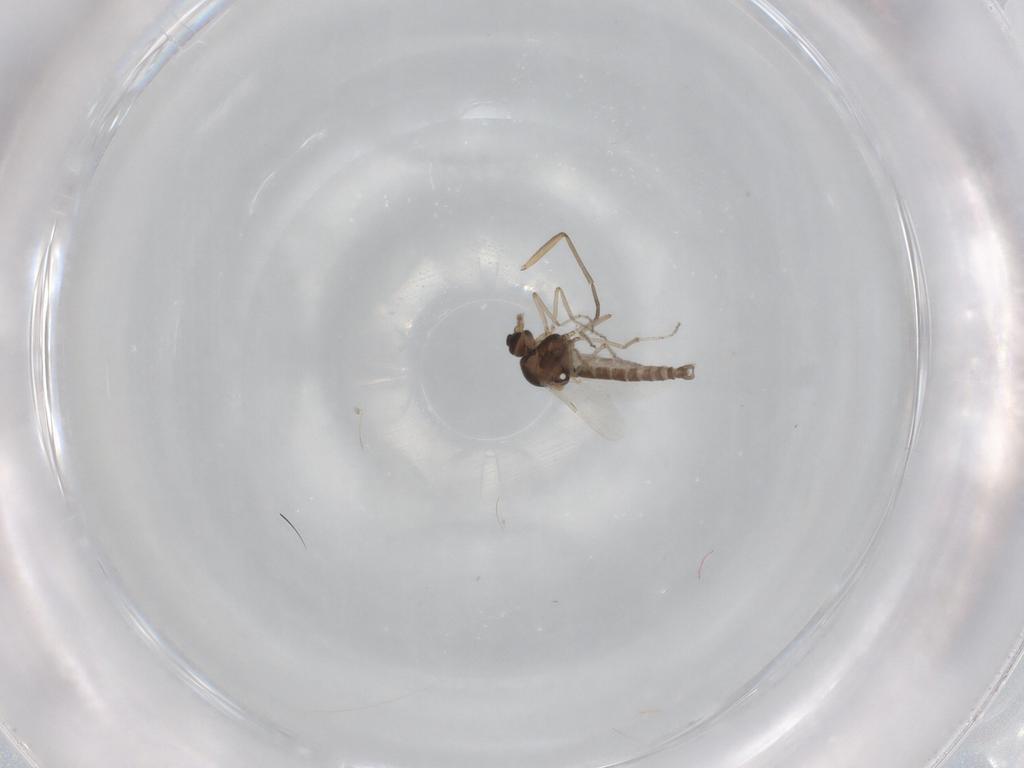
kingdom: Animalia
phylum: Arthropoda
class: Insecta
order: Diptera
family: Ceratopogonidae
